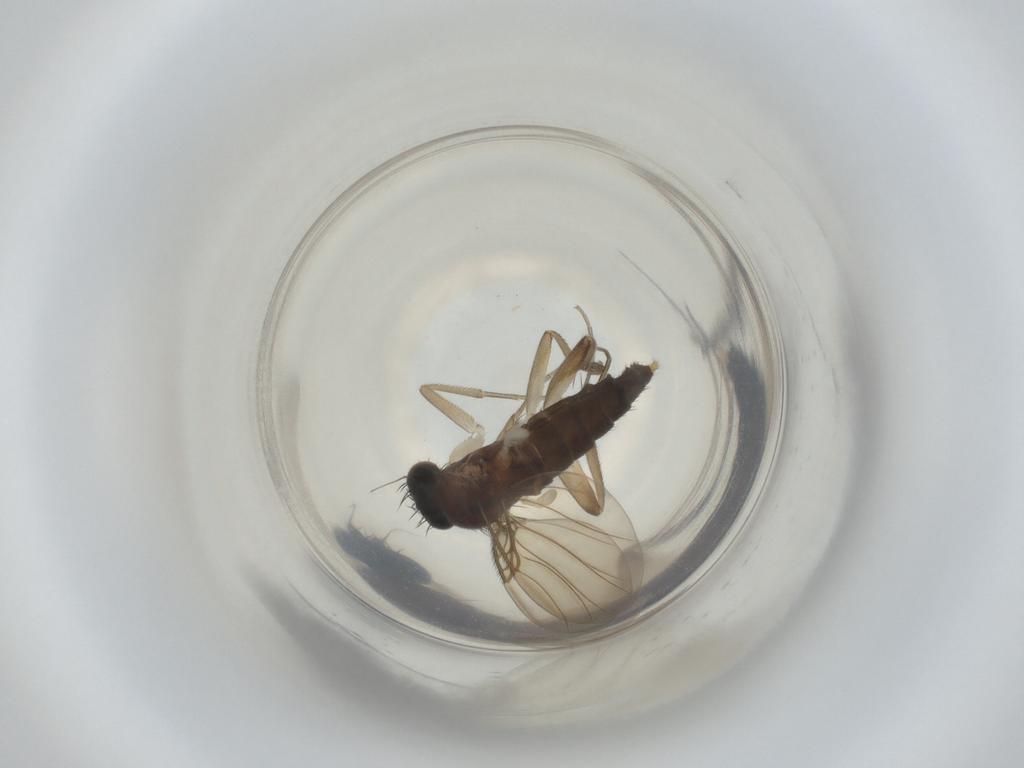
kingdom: Animalia
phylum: Arthropoda
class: Insecta
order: Diptera
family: Phoridae
